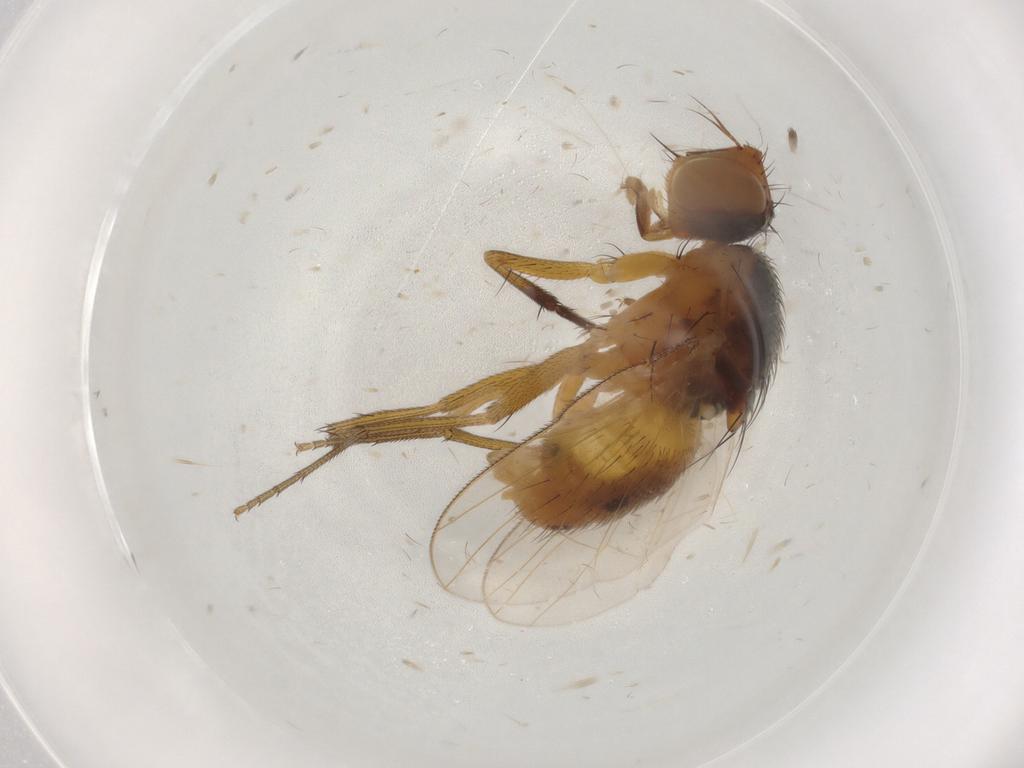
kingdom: Animalia
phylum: Arthropoda
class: Insecta
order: Diptera
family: Muscidae
